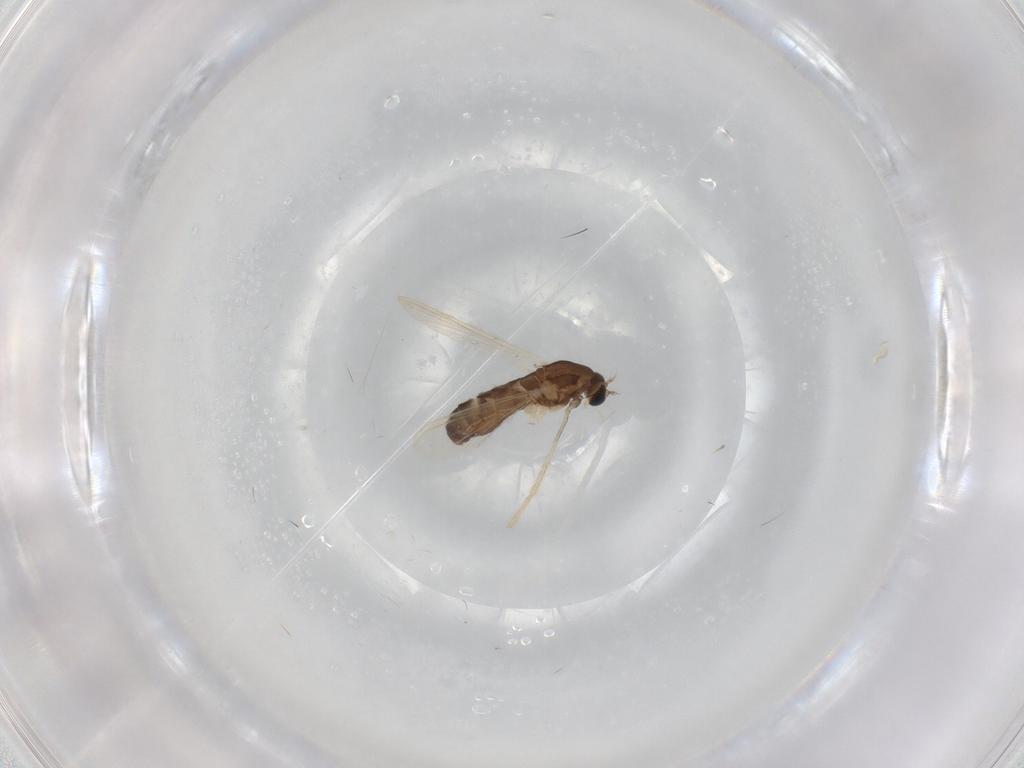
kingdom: Animalia
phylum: Arthropoda
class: Insecta
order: Diptera
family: Chironomidae
